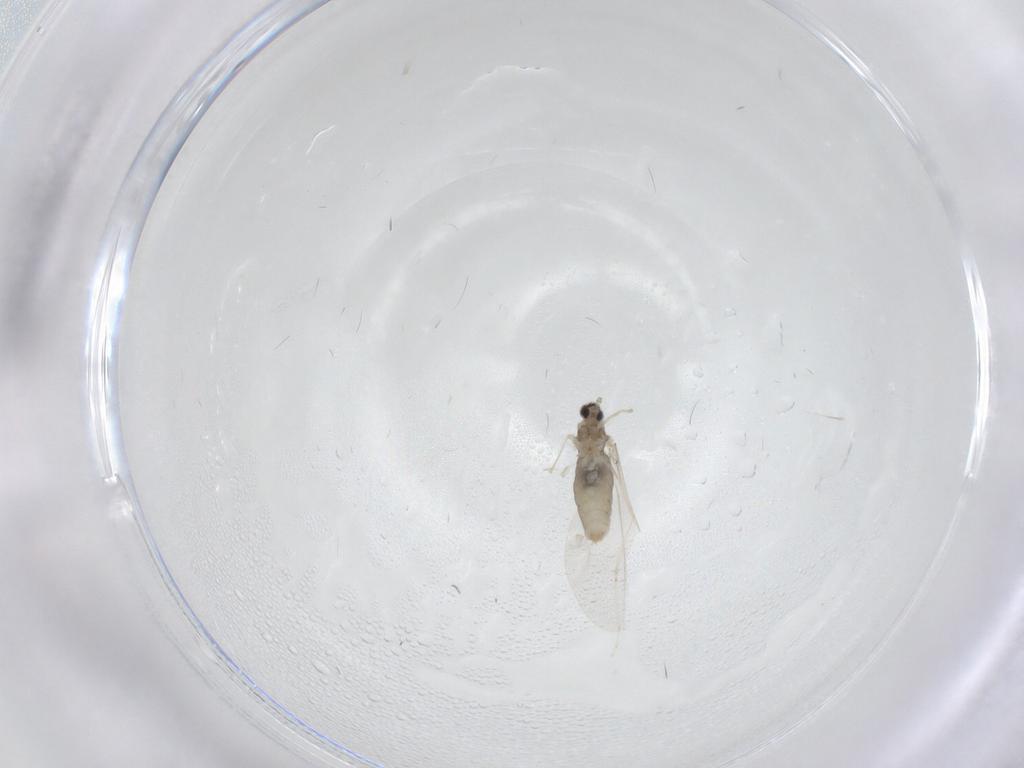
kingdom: Animalia
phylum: Arthropoda
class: Insecta
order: Diptera
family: Cecidomyiidae
